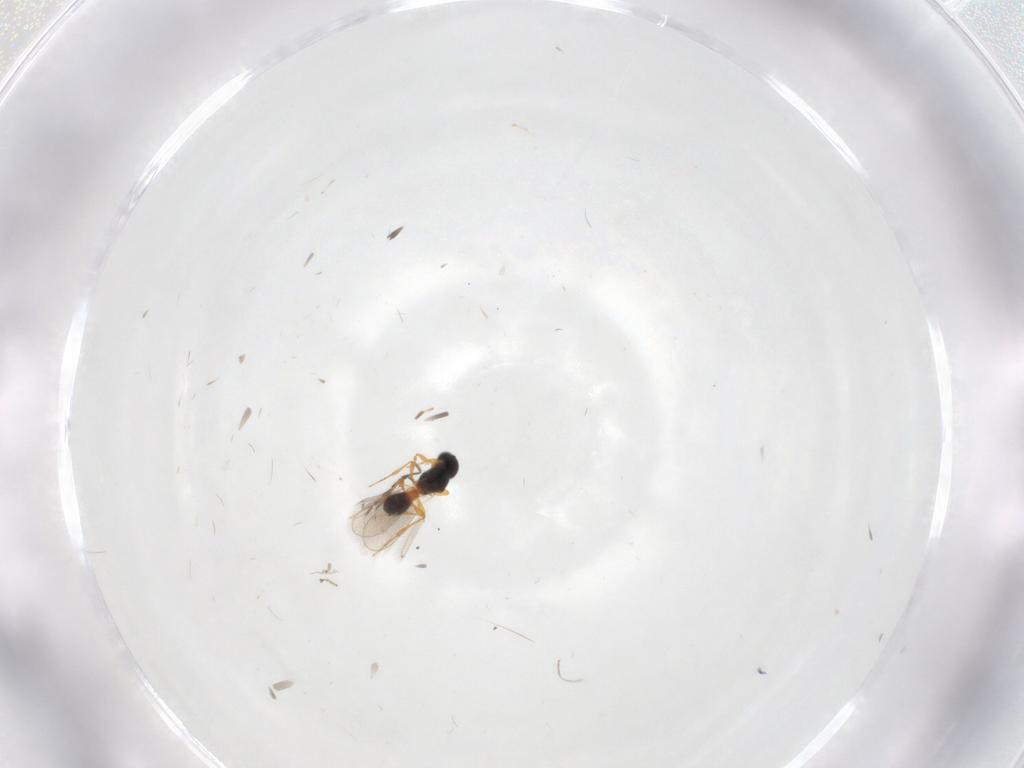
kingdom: Animalia
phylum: Arthropoda
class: Insecta
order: Hymenoptera
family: Platygastridae
